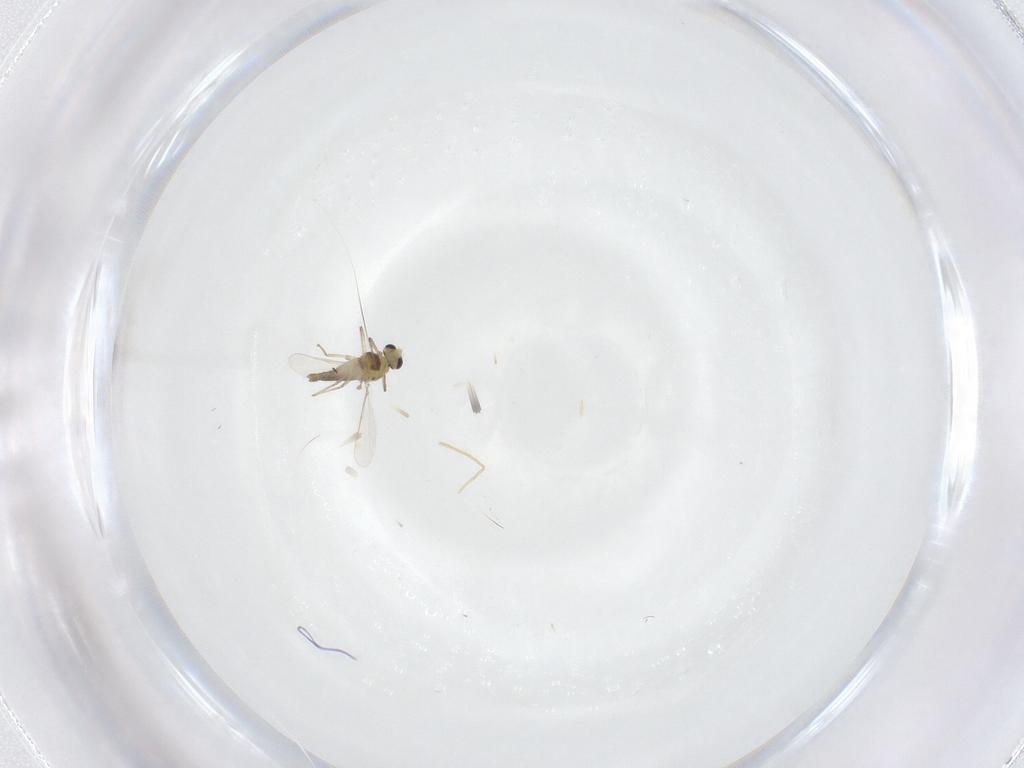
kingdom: Animalia
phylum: Arthropoda
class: Insecta
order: Diptera
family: Chironomidae
